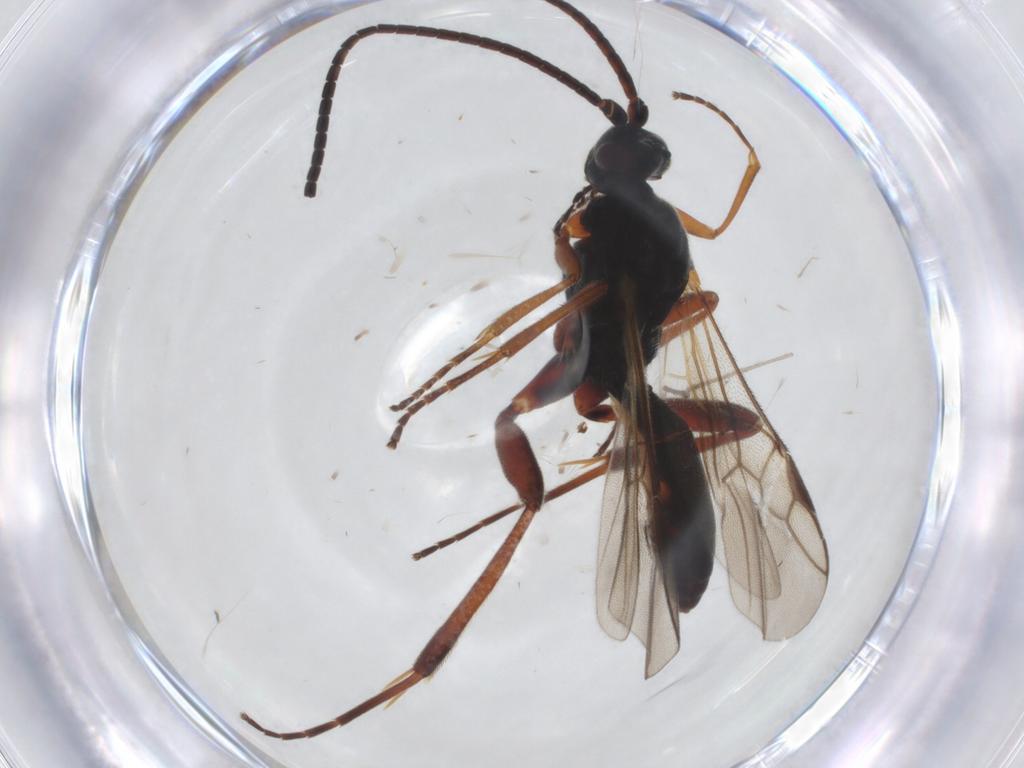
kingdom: Animalia
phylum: Arthropoda
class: Insecta
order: Hymenoptera
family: Braconidae
